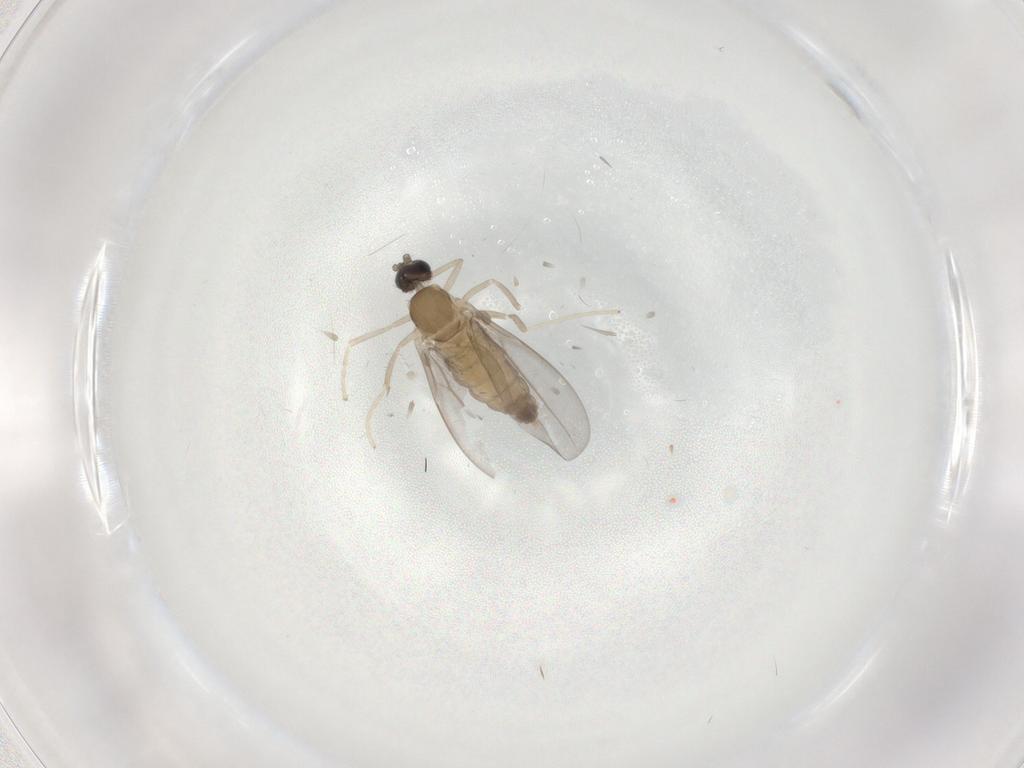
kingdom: Animalia
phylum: Arthropoda
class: Insecta
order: Diptera
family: Cecidomyiidae
